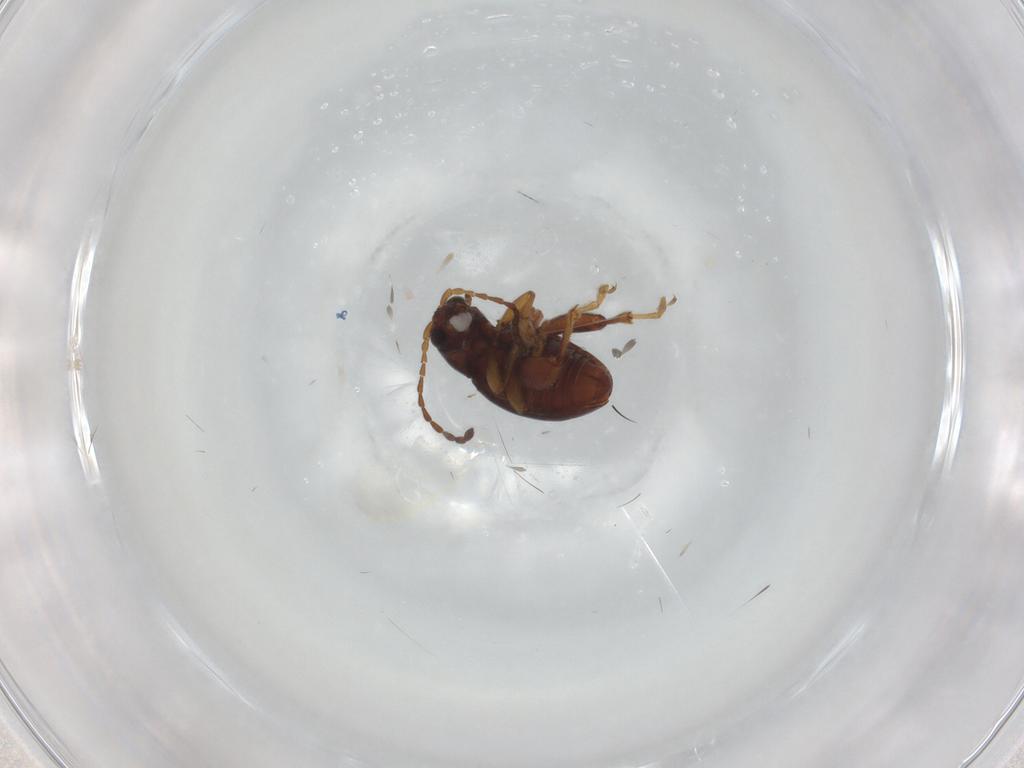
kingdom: Animalia
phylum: Arthropoda
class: Insecta
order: Coleoptera
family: Chrysomelidae
